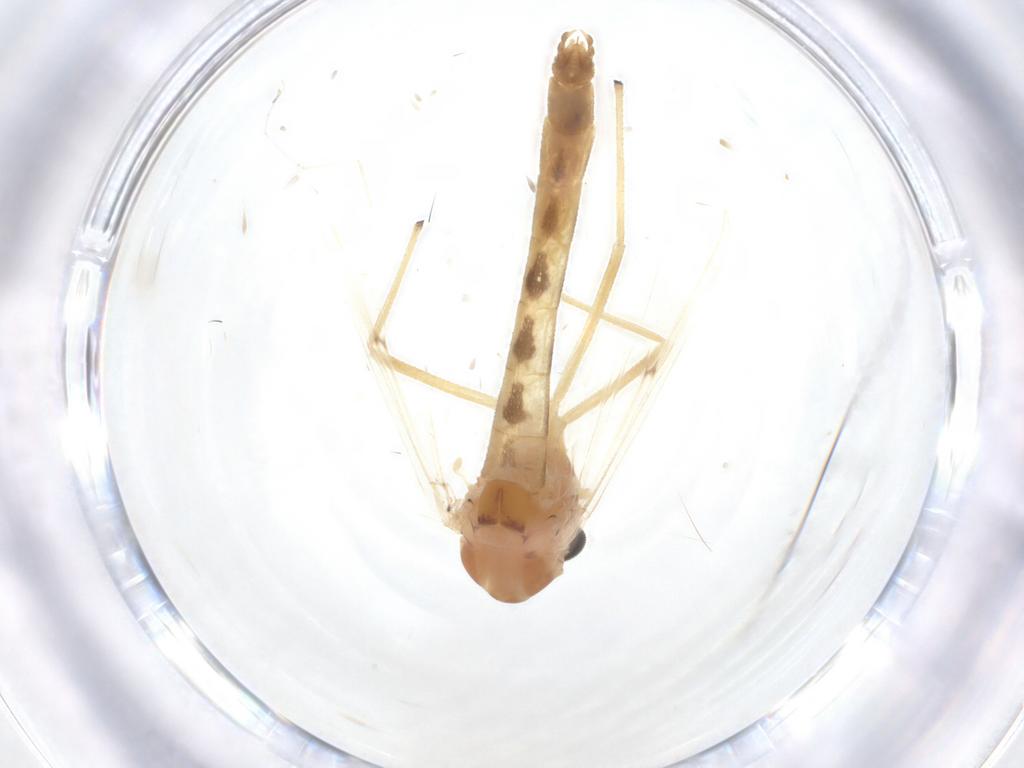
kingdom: Animalia
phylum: Arthropoda
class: Insecta
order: Diptera
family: Chironomidae
